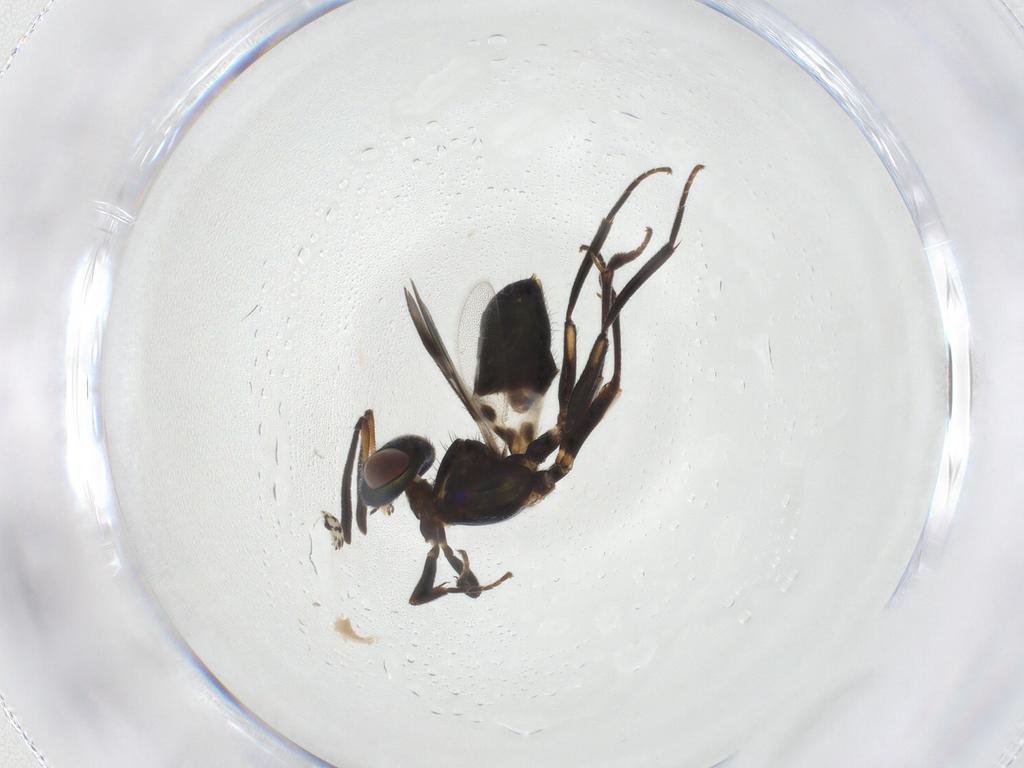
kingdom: Animalia
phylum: Arthropoda
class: Insecta
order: Hymenoptera
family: Eupelmidae
